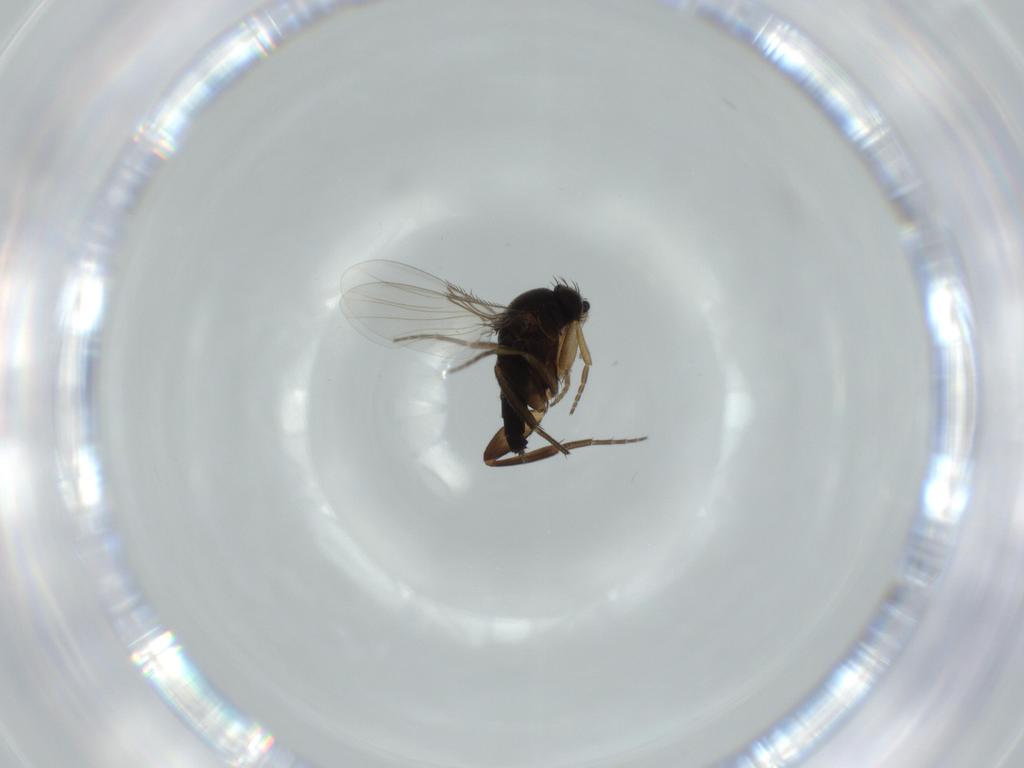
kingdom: Animalia
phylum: Arthropoda
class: Insecta
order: Diptera
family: Phoridae
